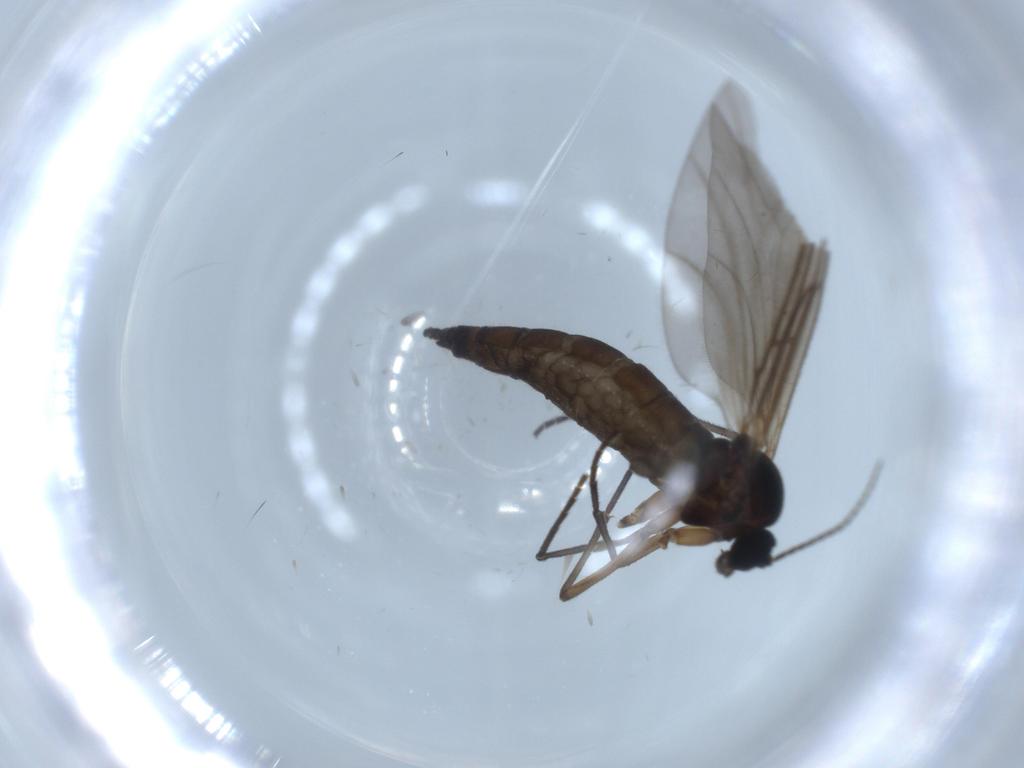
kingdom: Animalia
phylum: Arthropoda
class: Insecta
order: Diptera
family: Sciaridae
